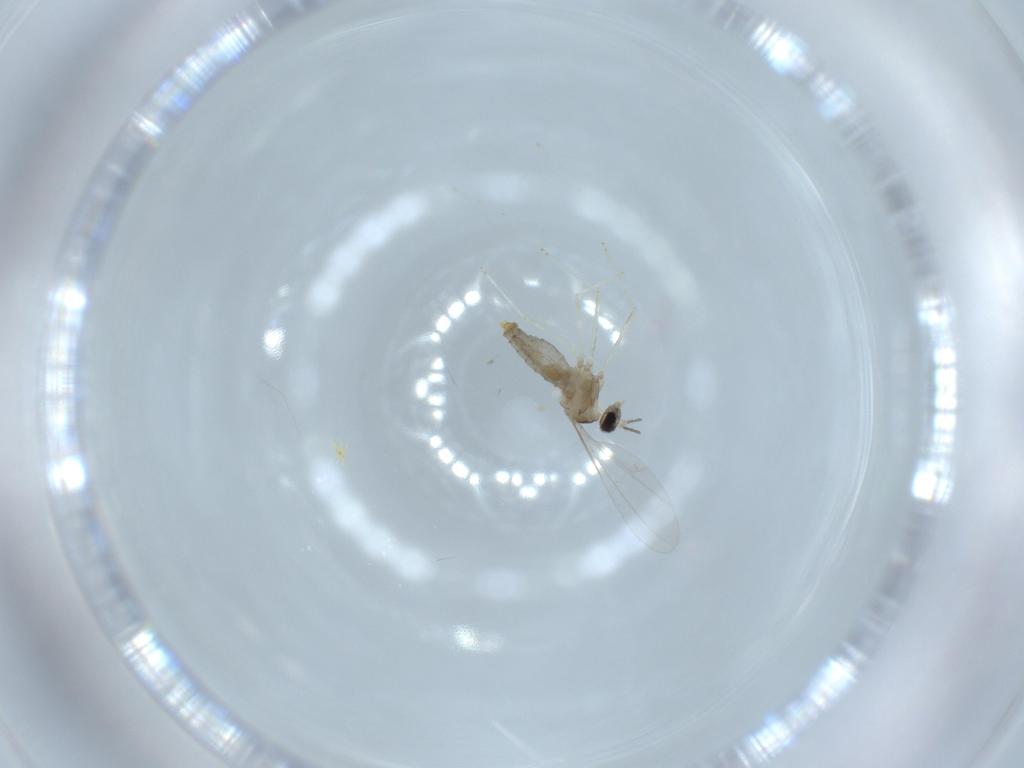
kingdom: Animalia
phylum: Arthropoda
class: Insecta
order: Diptera
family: Cecidomyiidae
